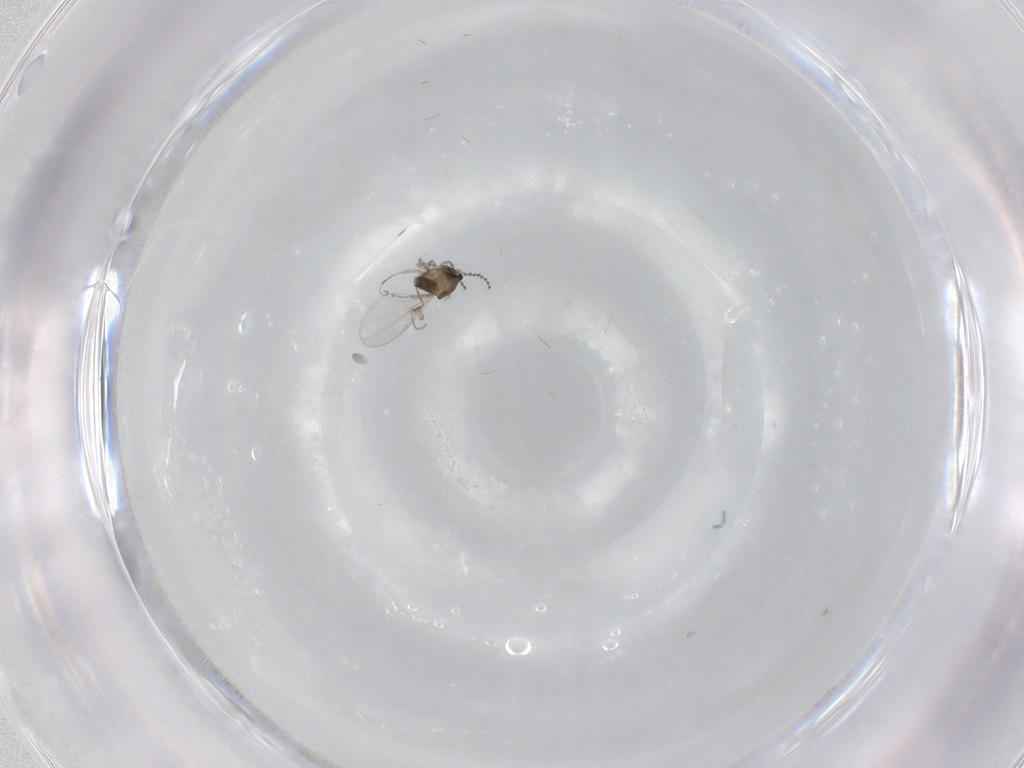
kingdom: Animalia
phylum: Arthropoda
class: Insecta
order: Diptera
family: Cecidomyiidae
